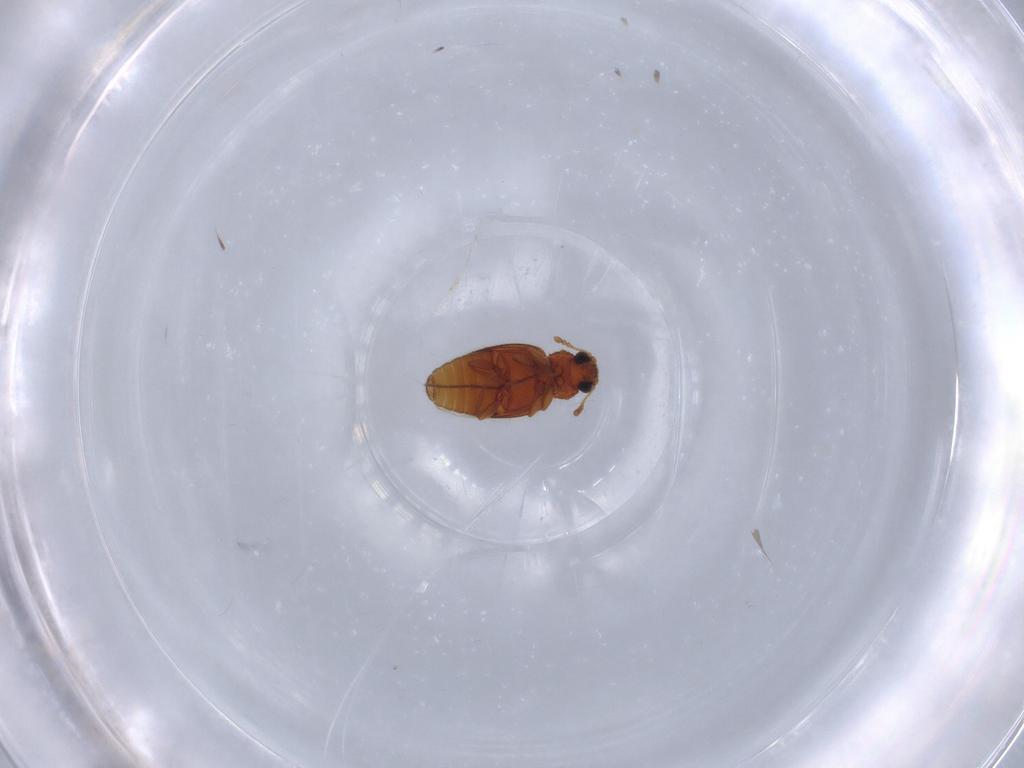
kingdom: Animalia
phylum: Arthropoda
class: Insecta
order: Coleoptera
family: Latridiidae
